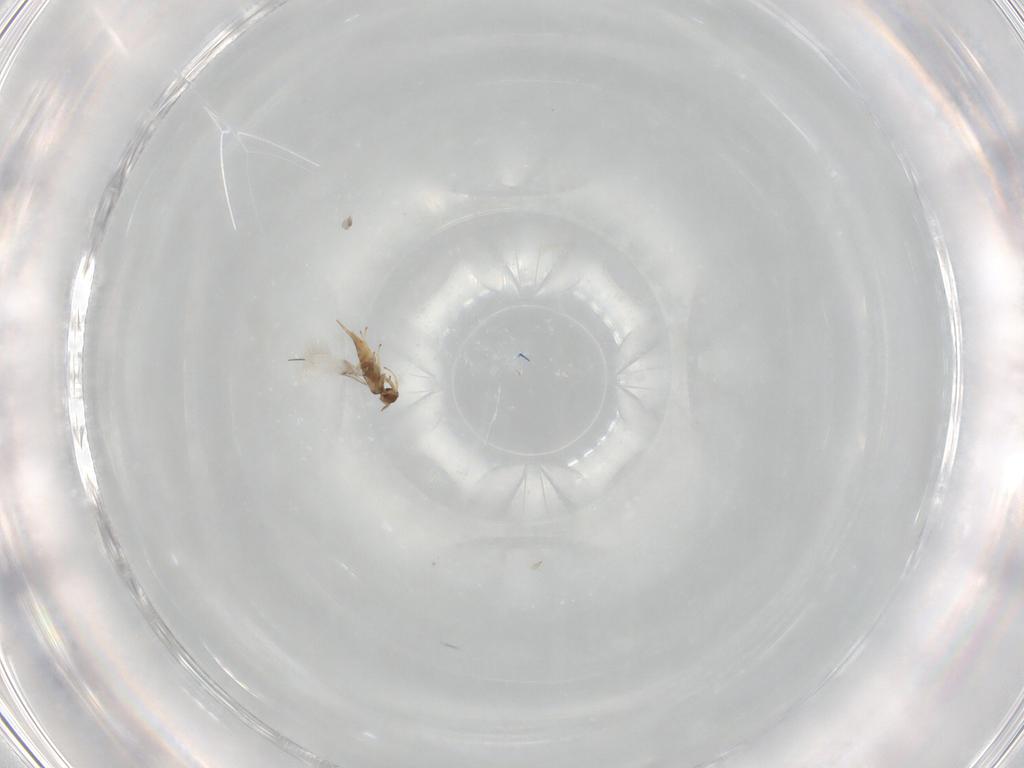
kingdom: Animalia
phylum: Arthropoda
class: Insecta
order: Hymenoptera
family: Aphelinidae
